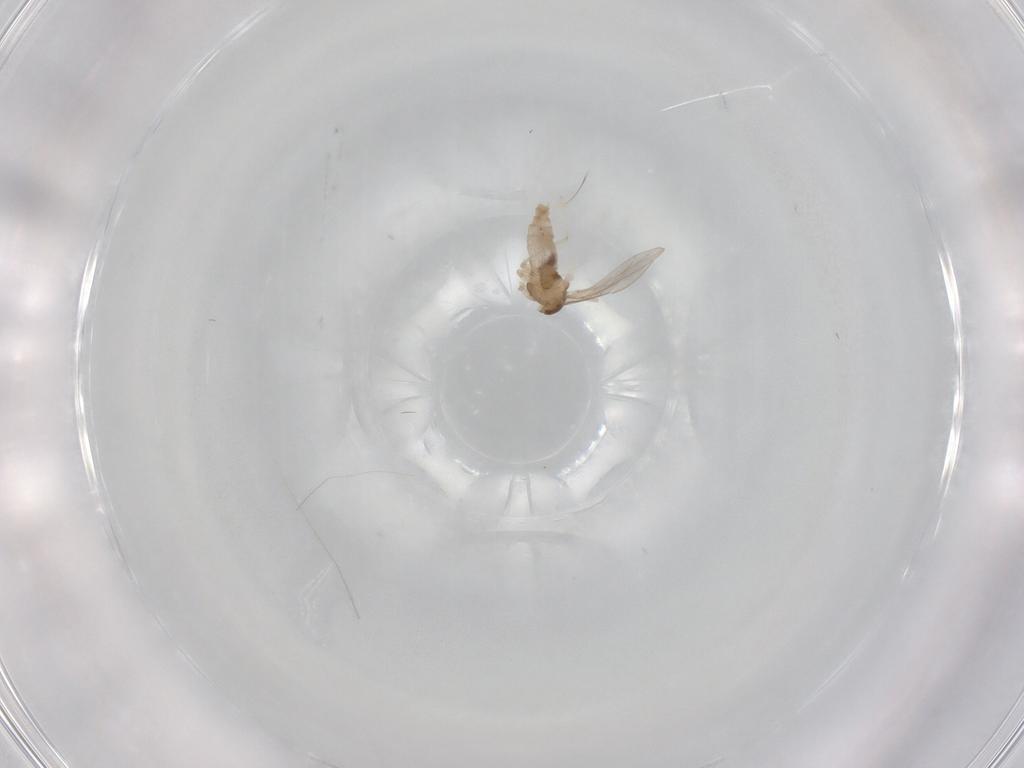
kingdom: Animalia
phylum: Arthropoda
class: Insecta
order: Diptera
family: Cecidomyiidae
